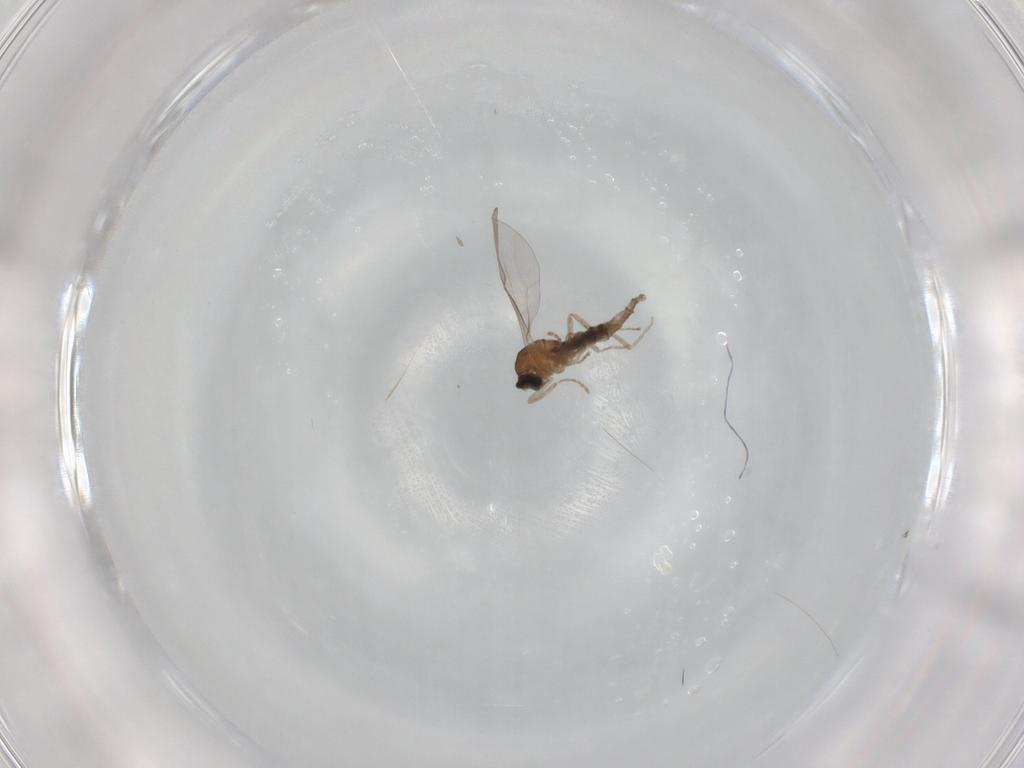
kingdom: Animalia
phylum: Arthropoda
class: Insecta
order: Diptera
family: Cecidomyiidae
